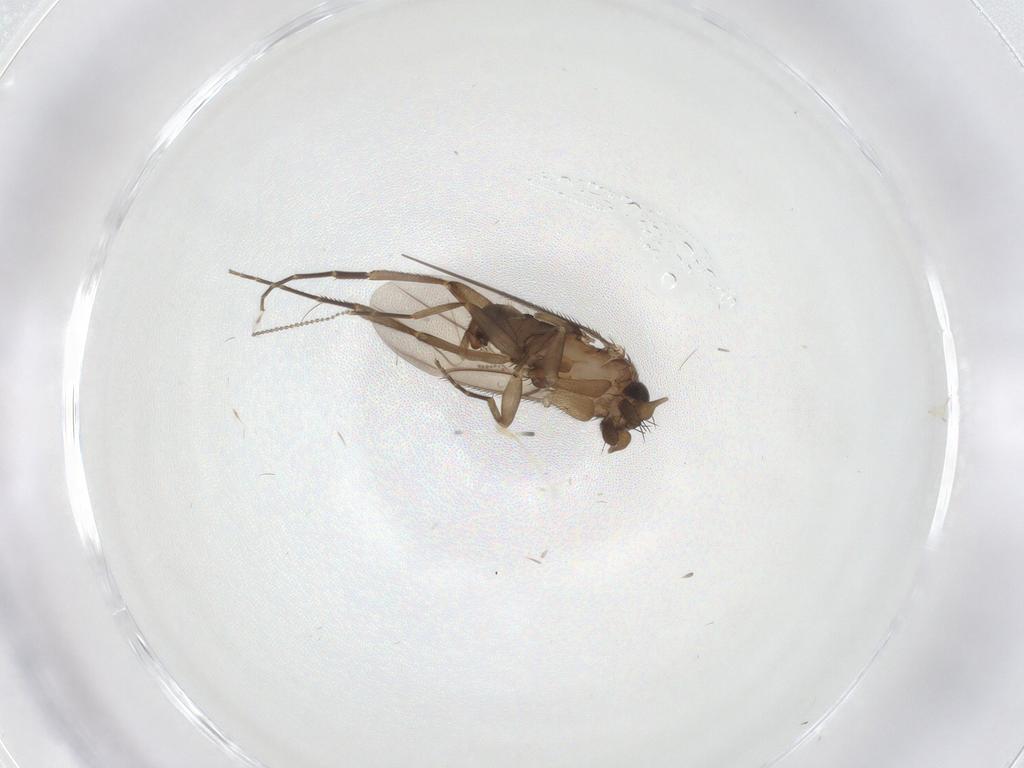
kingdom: Animalia
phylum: Arthropoda
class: Insecta
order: Diptera
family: Phoridae
